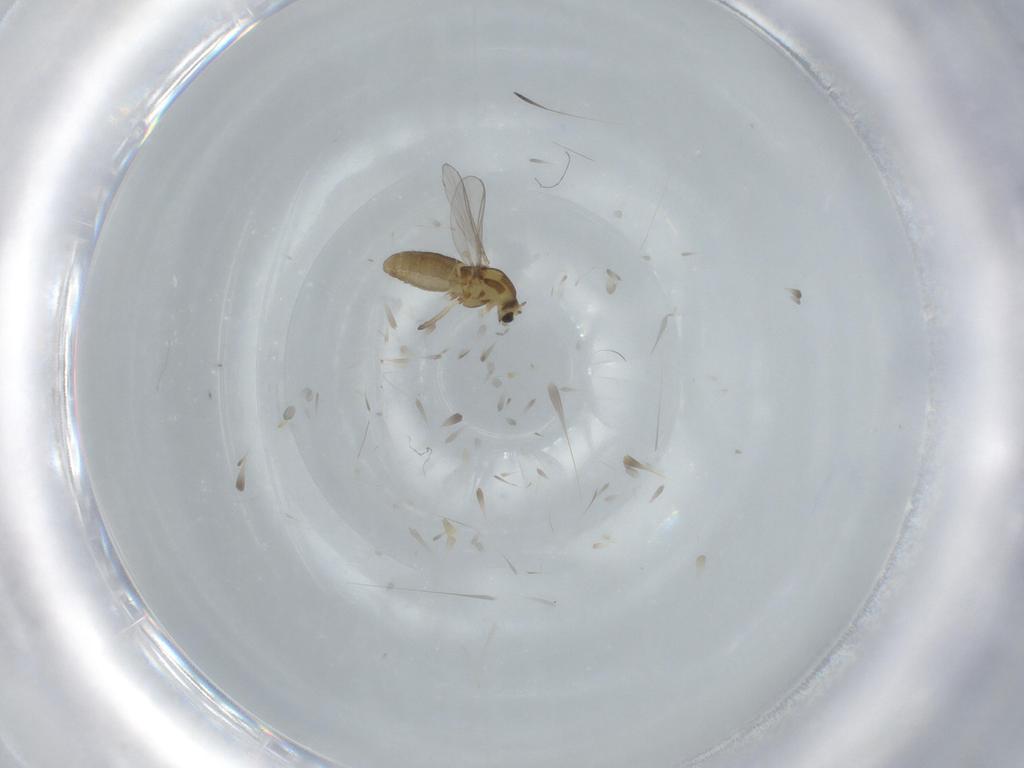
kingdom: Animalia
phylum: Arthropoda
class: Insecta
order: Diptera
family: Chironomidae
